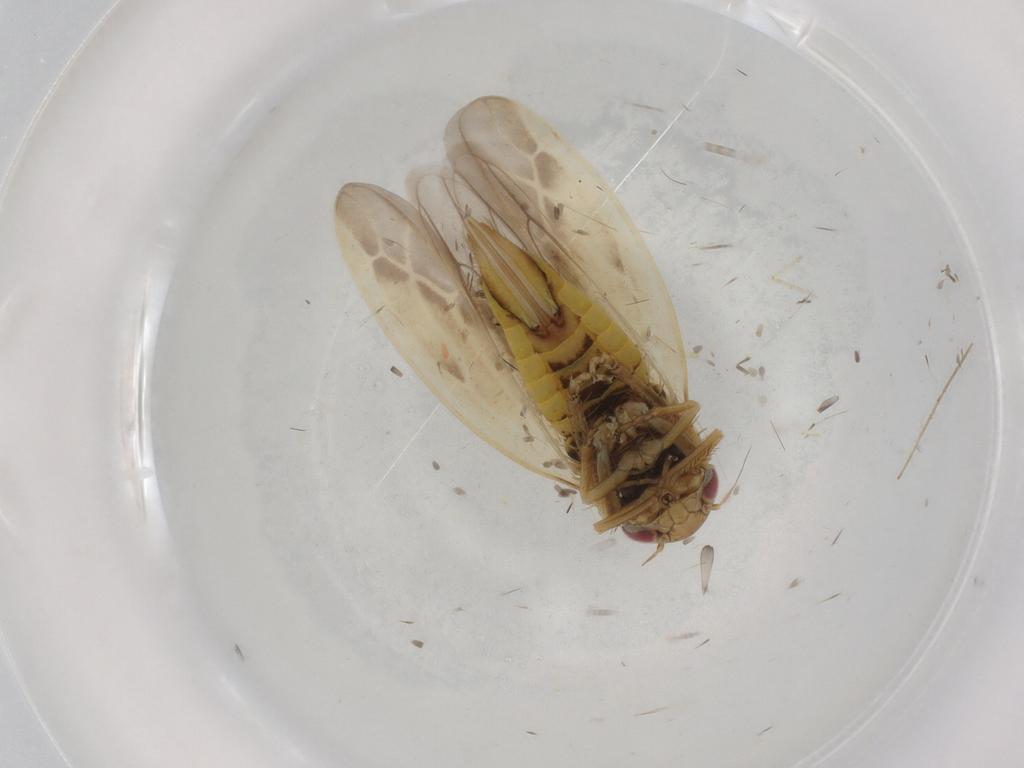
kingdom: Animalia
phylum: Arthropoda
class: Insecta
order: Hemiptera
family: Cicadellidae
